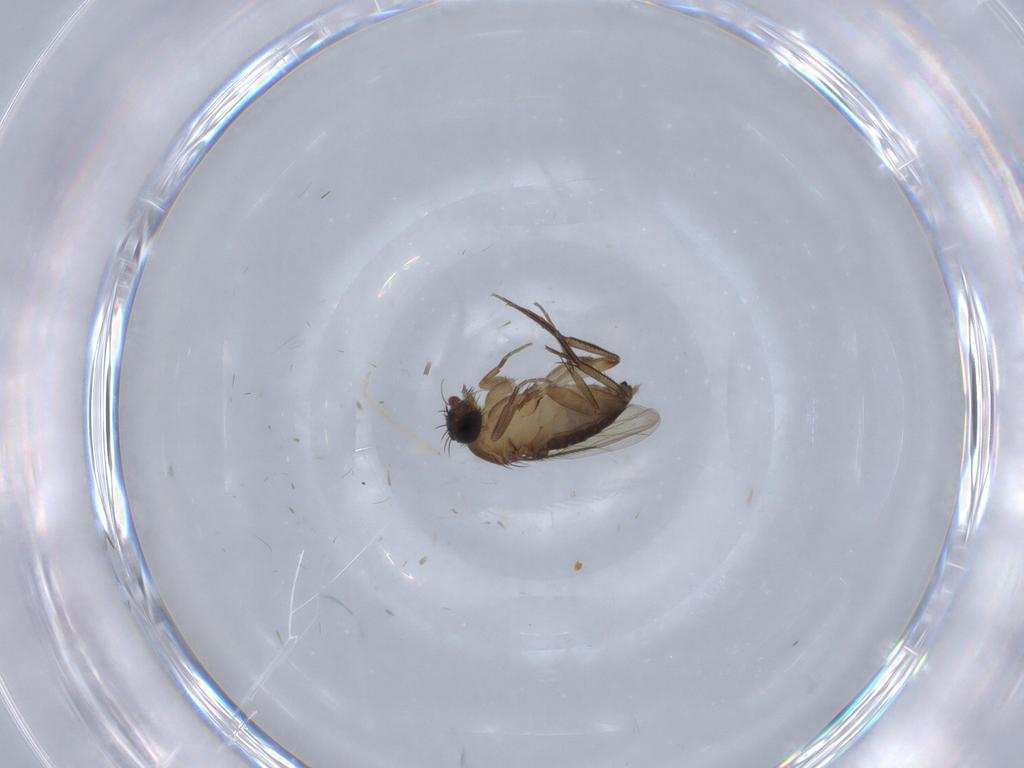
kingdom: Animalia
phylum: Arthropoda
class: Insecta
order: Diptera
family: Phoridae
